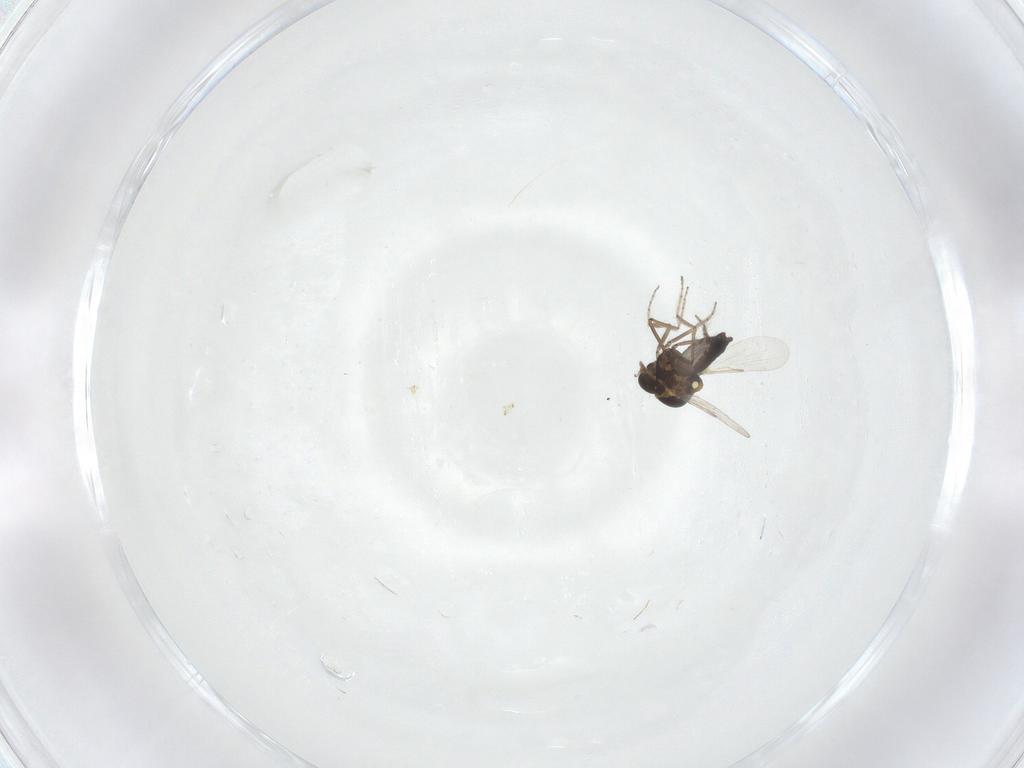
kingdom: Animalia
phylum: Arthropoda
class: Insecta
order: Diptera
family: Ceratopogonidae
